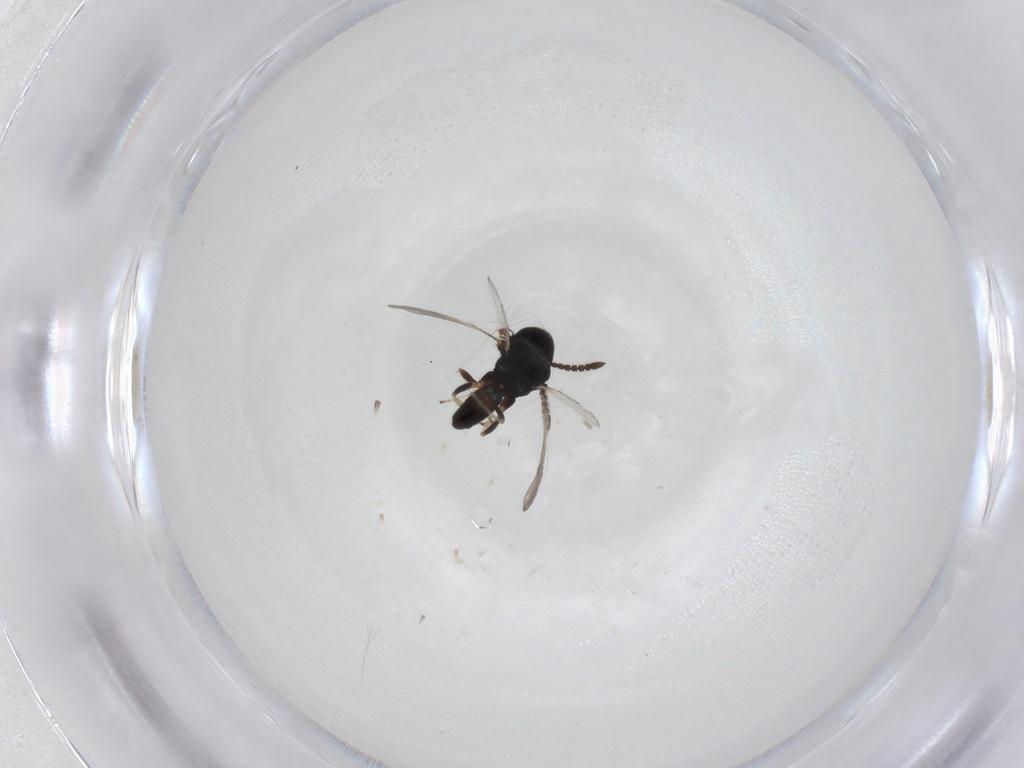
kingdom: Animalia
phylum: Arthropoda
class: Insecta
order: Hymenoptera
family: Pteromalidae
